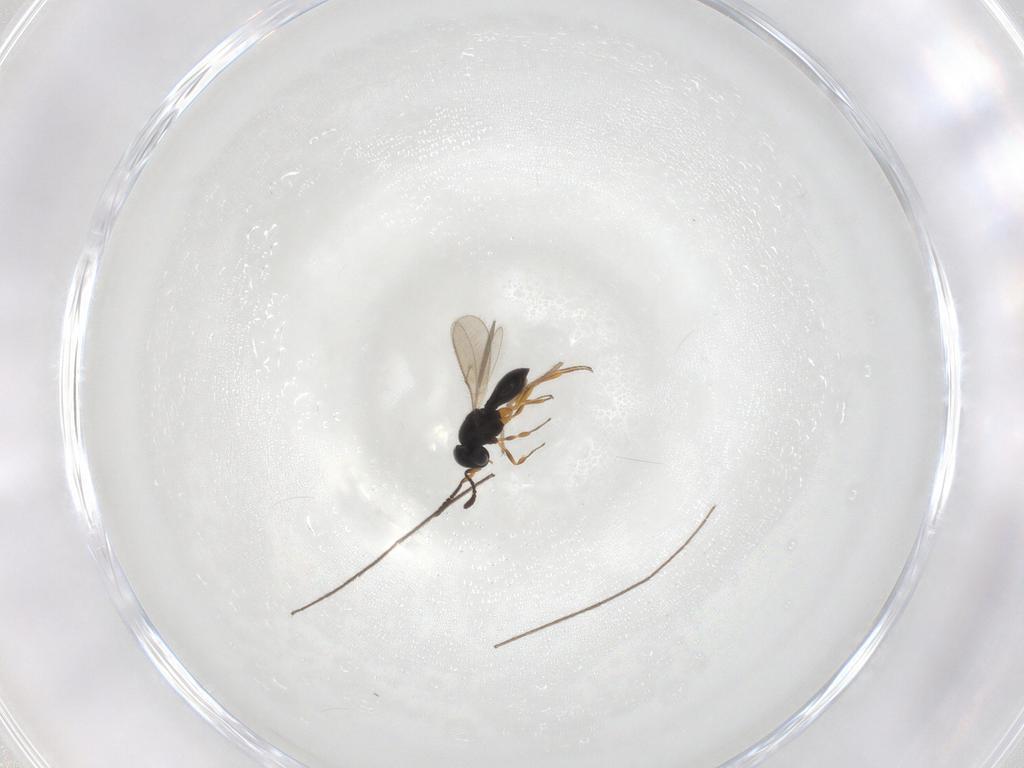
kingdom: Animalia
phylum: Arthropoda
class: Insecta
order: Hymenoptera
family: Scelionidae
